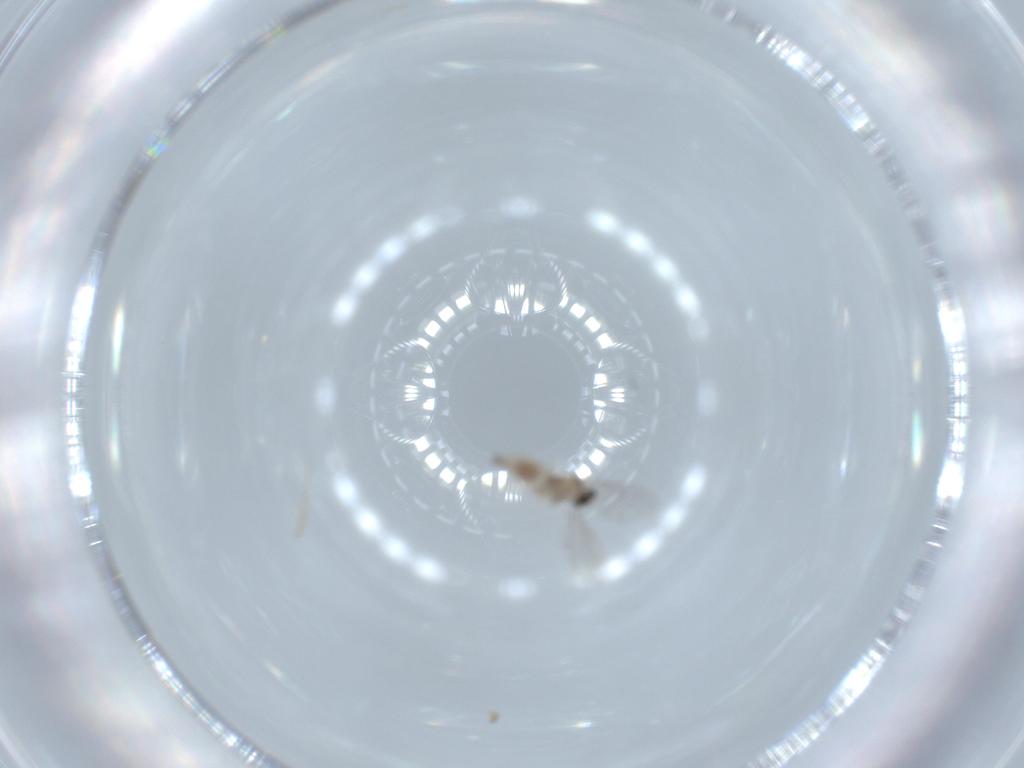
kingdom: Animalia
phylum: Arthropoda
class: Insecta
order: Diptera
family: Cecidomyiidae
